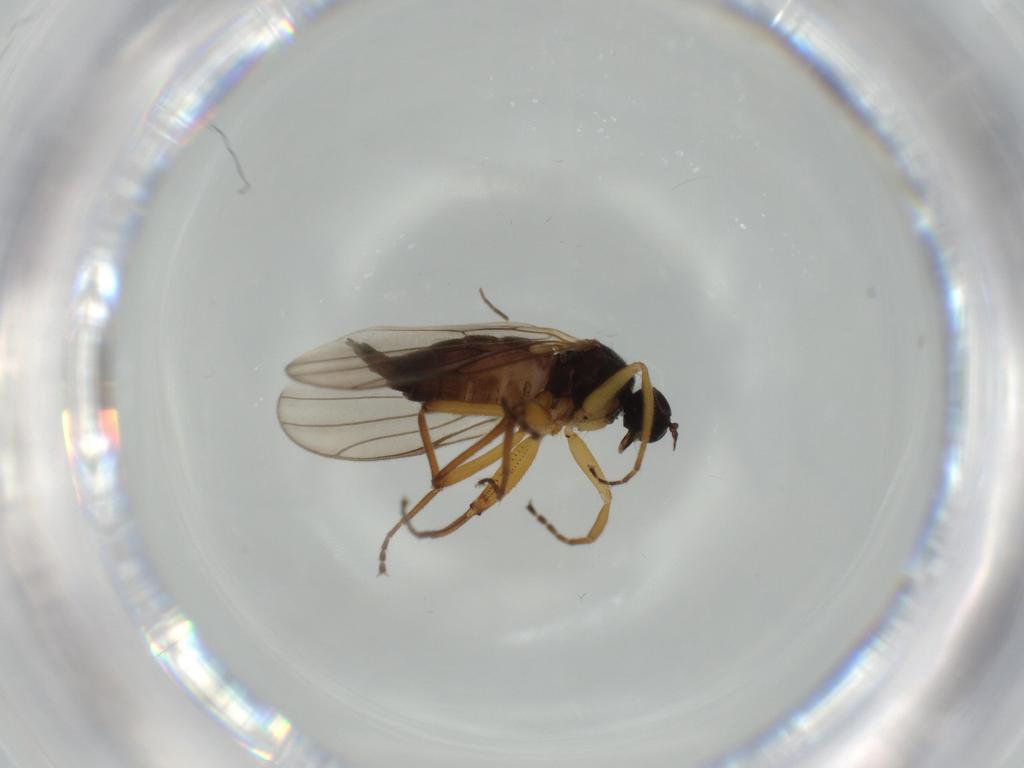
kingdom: Animalia
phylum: Arthropoda
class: Insecta
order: Diptera
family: Hybotidae
